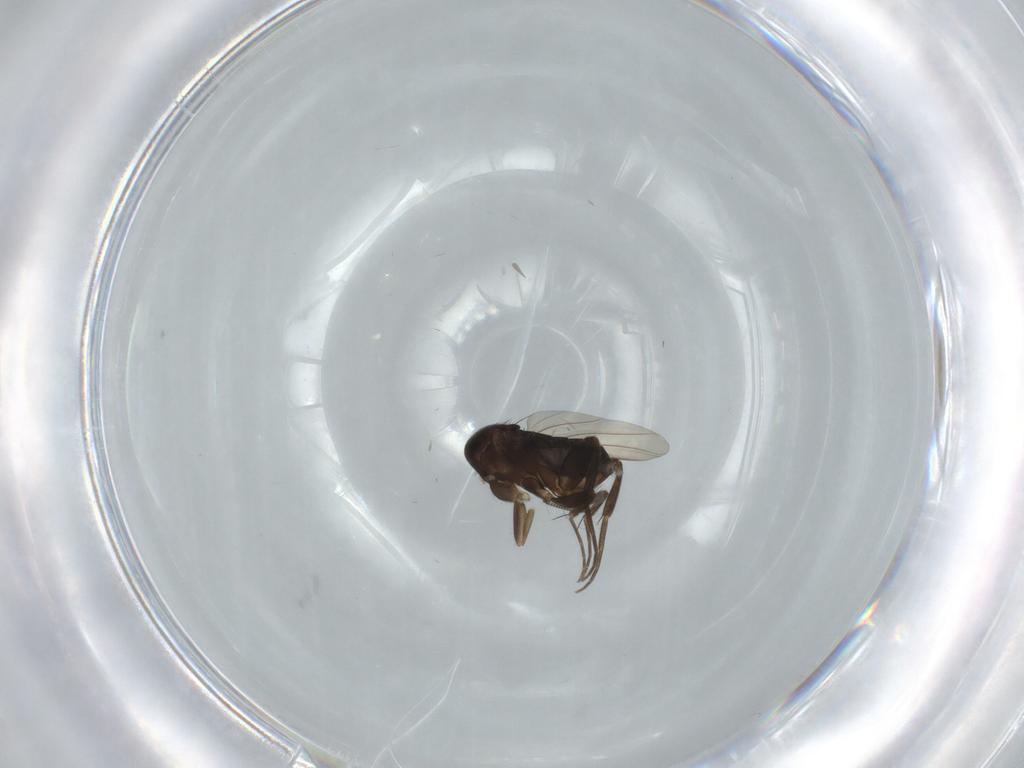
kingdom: Animalia
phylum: Arthropoda
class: Insecta
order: Diptera
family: Phoridae
